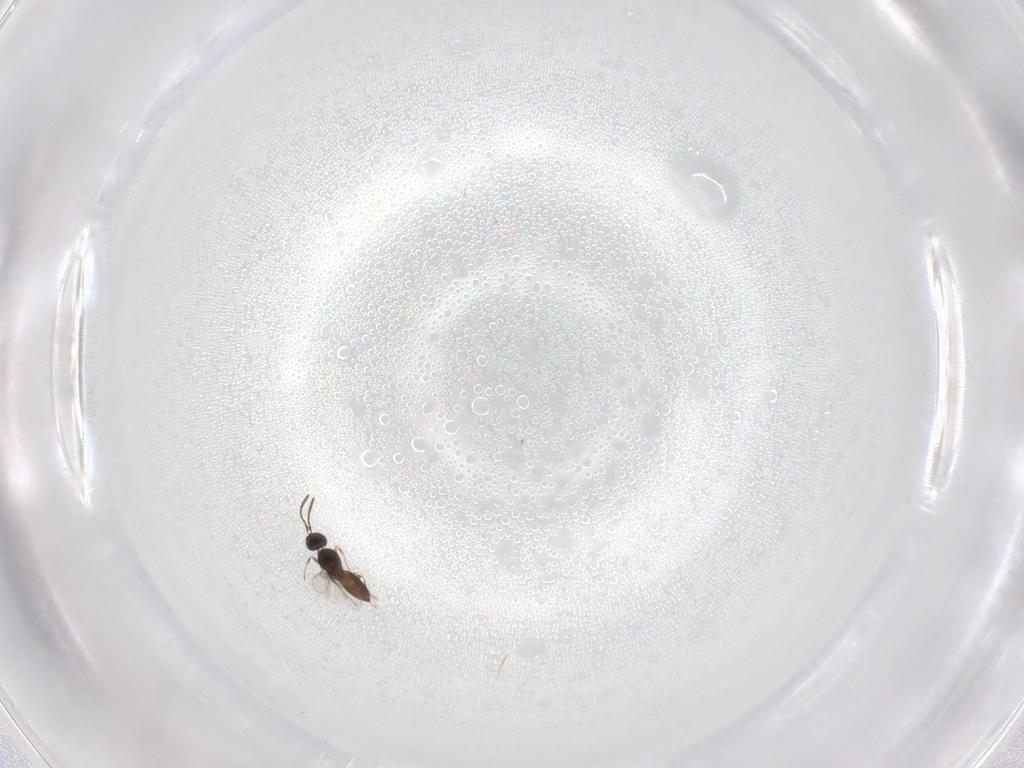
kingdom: Animalia
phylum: Arthropoda
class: Insecta
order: Hymenoptera
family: Scelionidae
